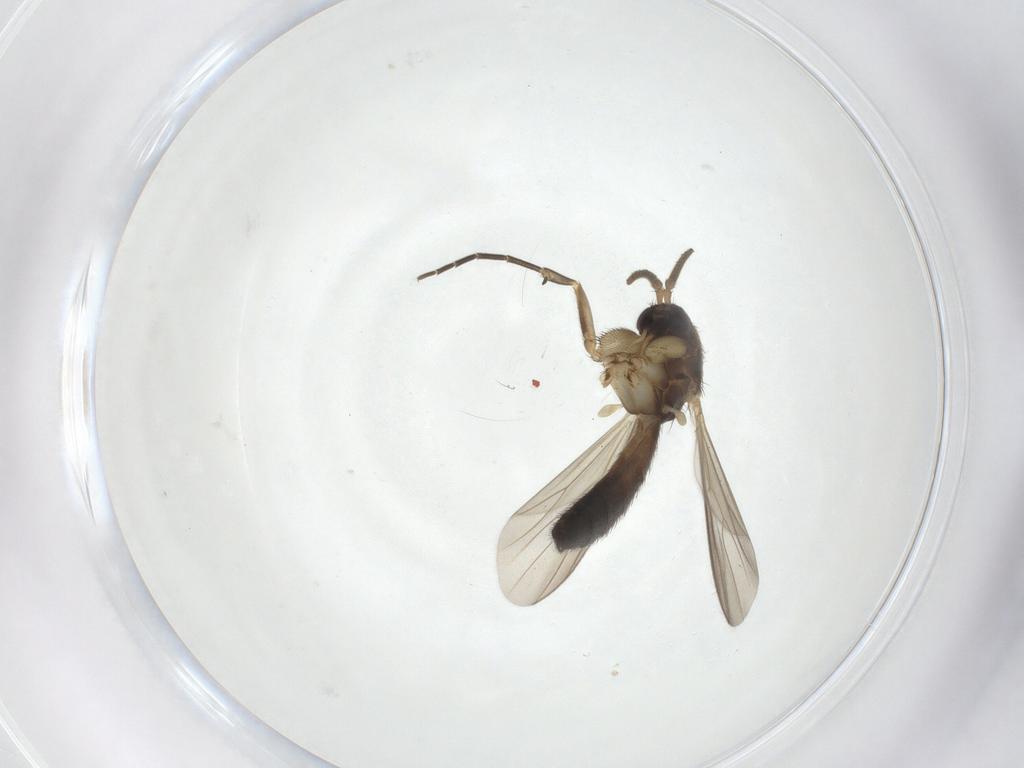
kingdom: Animalia
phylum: Arthropoda
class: Insecta
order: Diptera
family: Mycetophilidae
